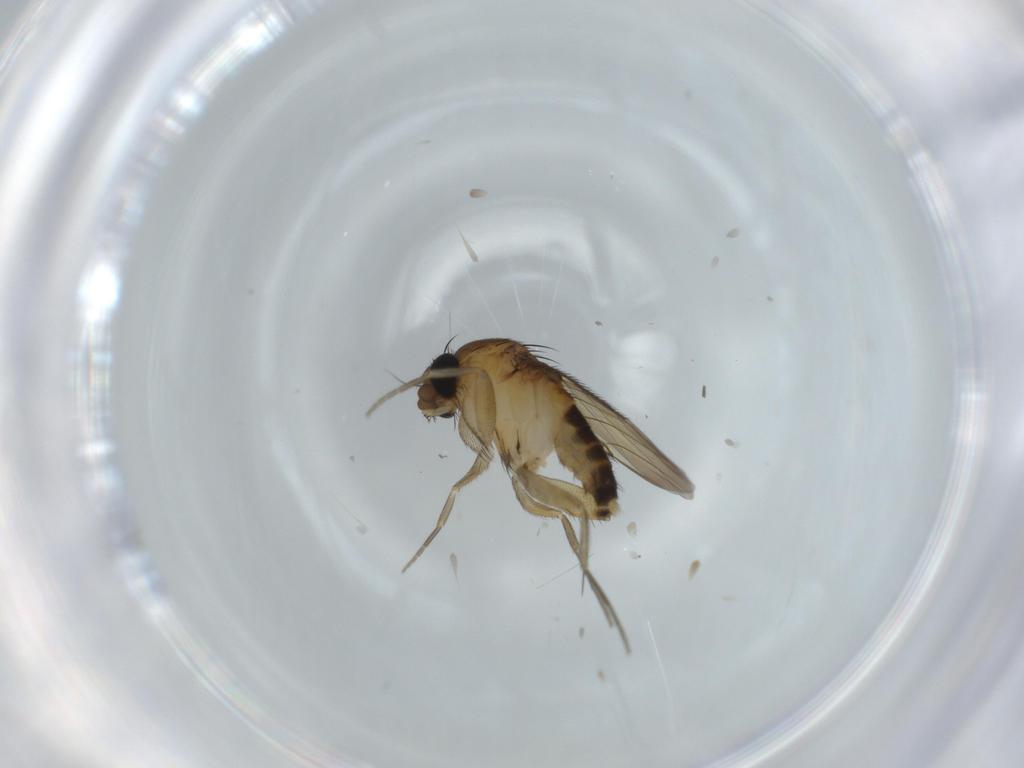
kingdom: Animalia
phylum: Arthropoda
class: Insecta
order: Diptera
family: Phoridae
